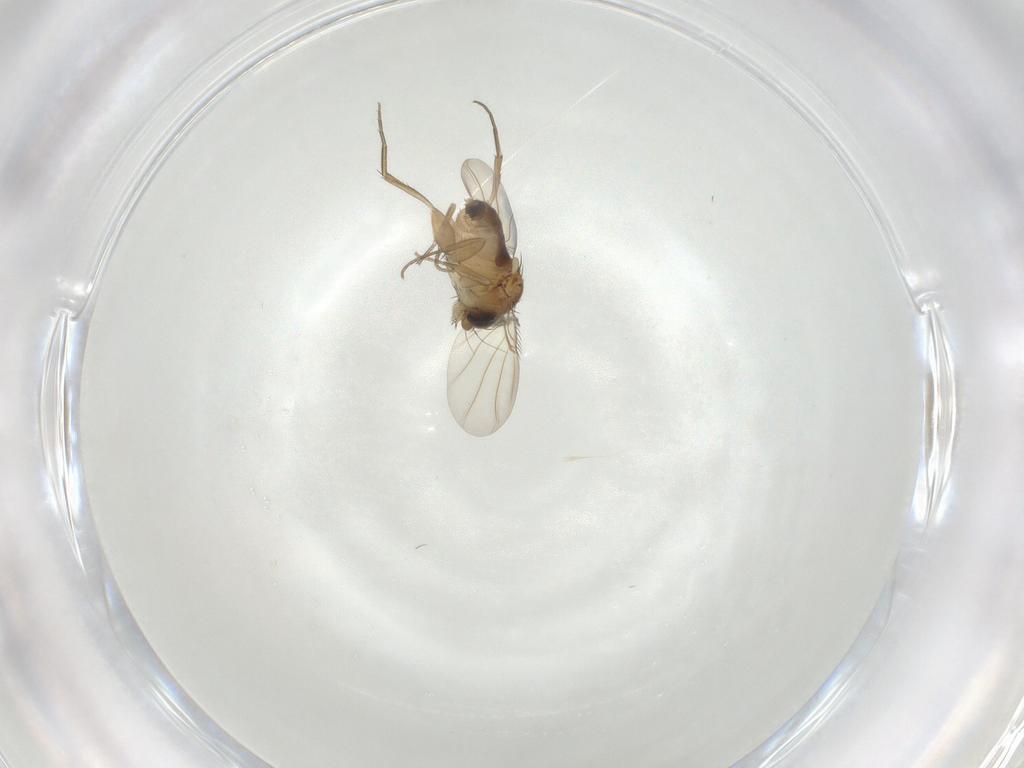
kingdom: Animalia
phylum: Arthropoda
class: Insecta
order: Diptera
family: Phoridae
